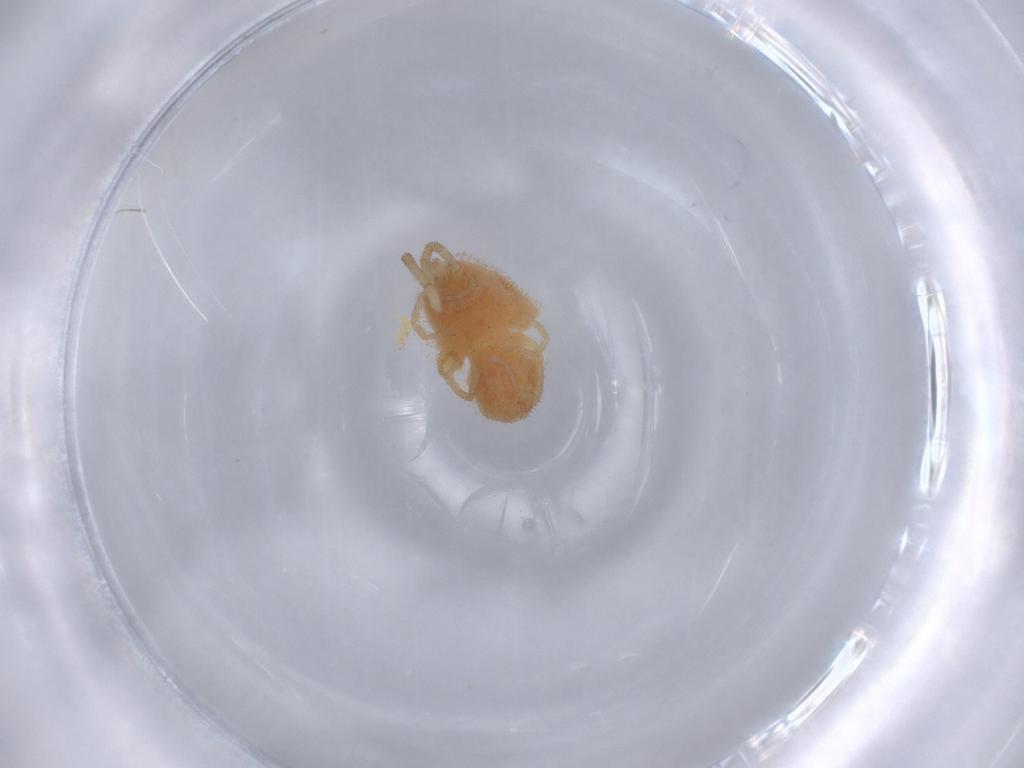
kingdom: Animalia
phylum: Arthropoda
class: Arachnida
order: Trombidiformes
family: Erythraeidae
